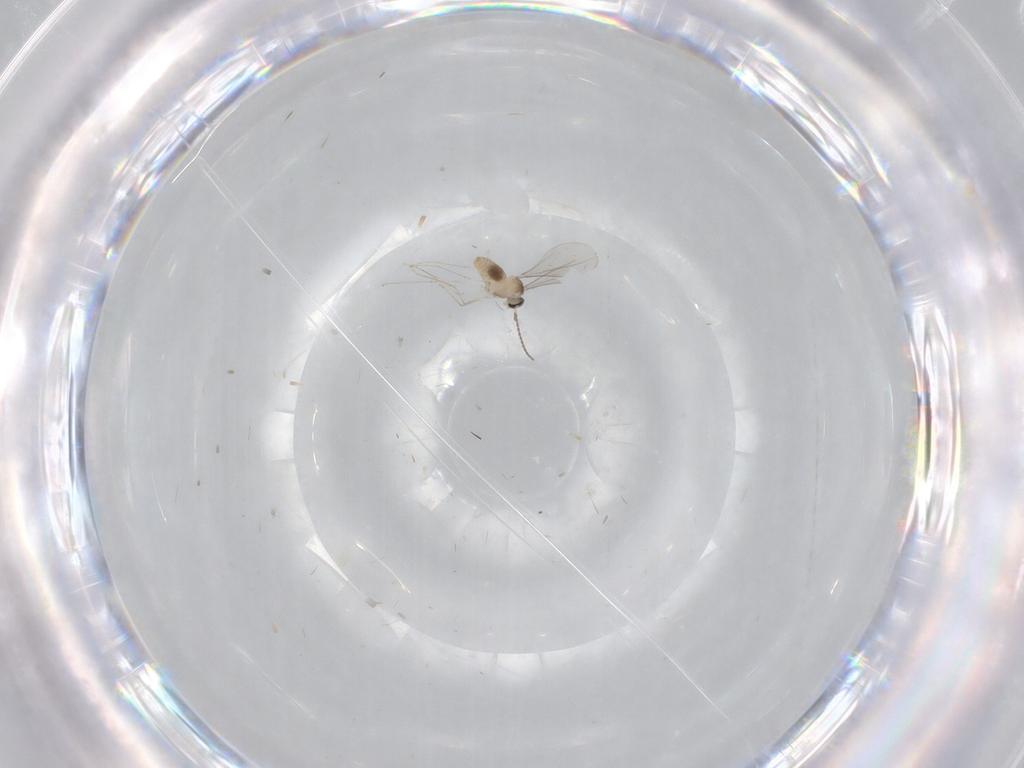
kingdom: Animalia
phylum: Arthropoda
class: Insecta
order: Diptera
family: Cecidomyiidae
